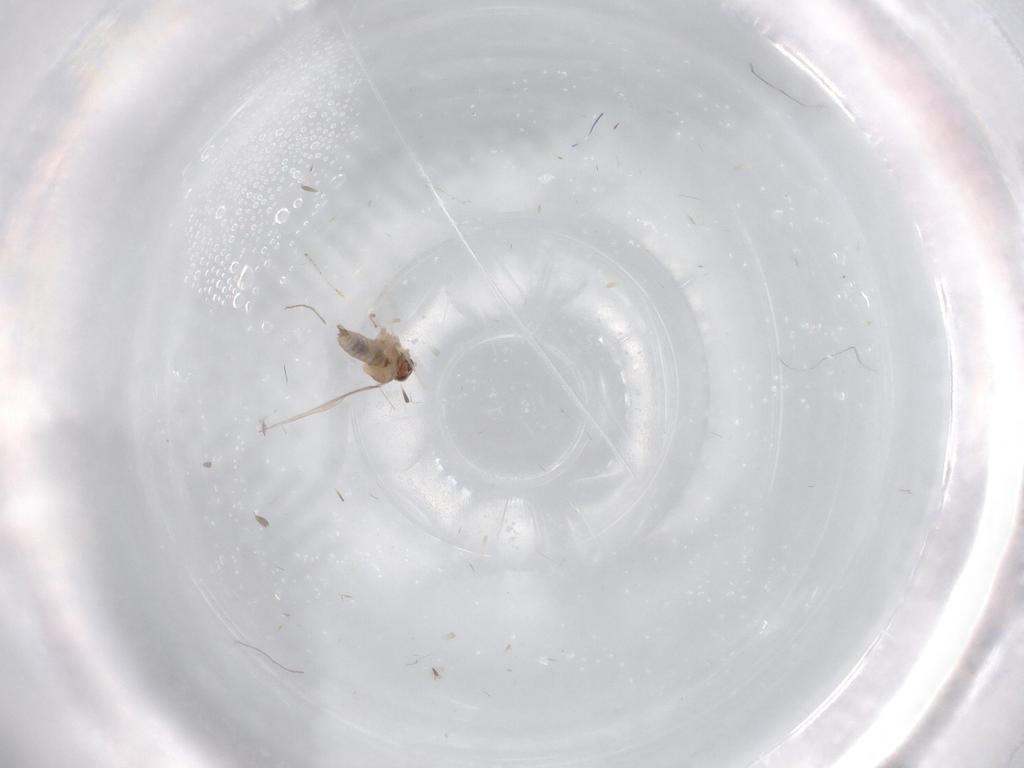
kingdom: Animalia
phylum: Arthropoda
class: Insecta
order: Diptera
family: Cecidomyiidae
